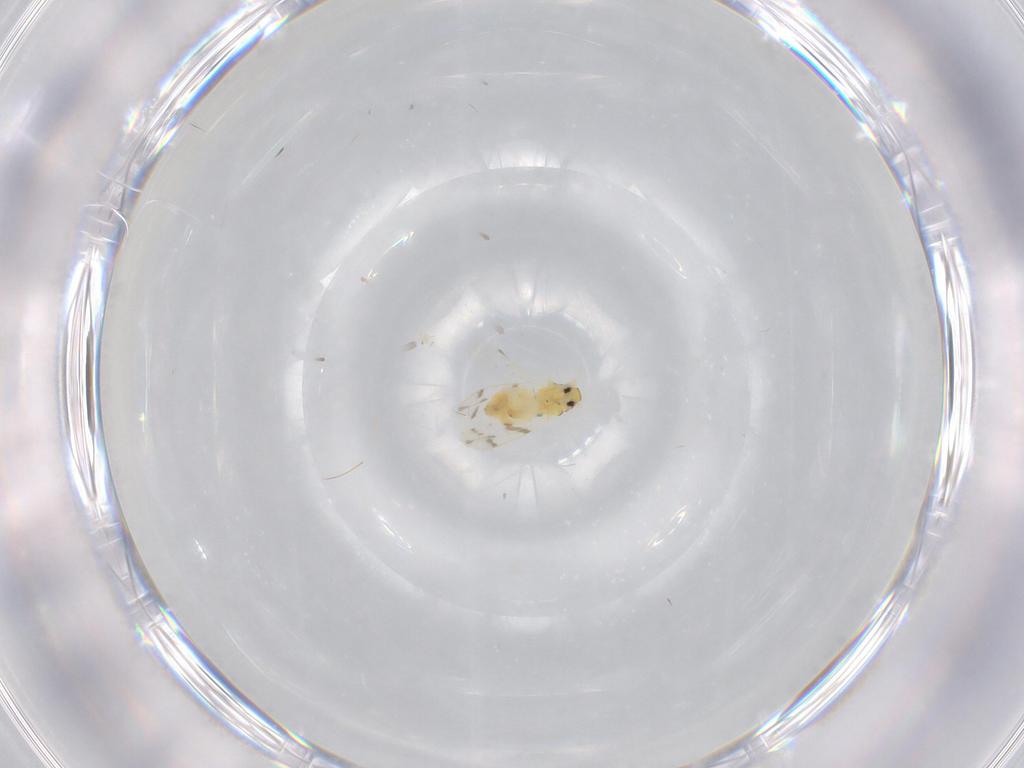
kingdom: Animalia
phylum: Arthropoda
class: Insecta
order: Hemiptera
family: Aleyrodidae
